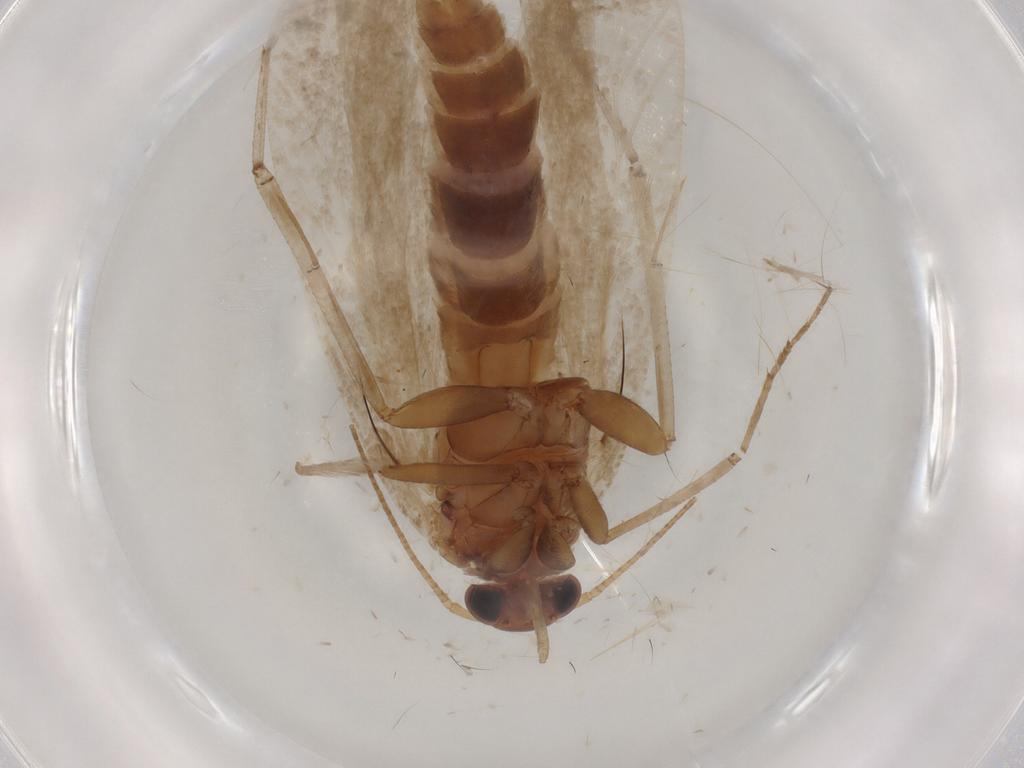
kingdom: Animalia
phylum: Arthropoda
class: Insecta
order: Lepidoptera
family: Gelechiidae
